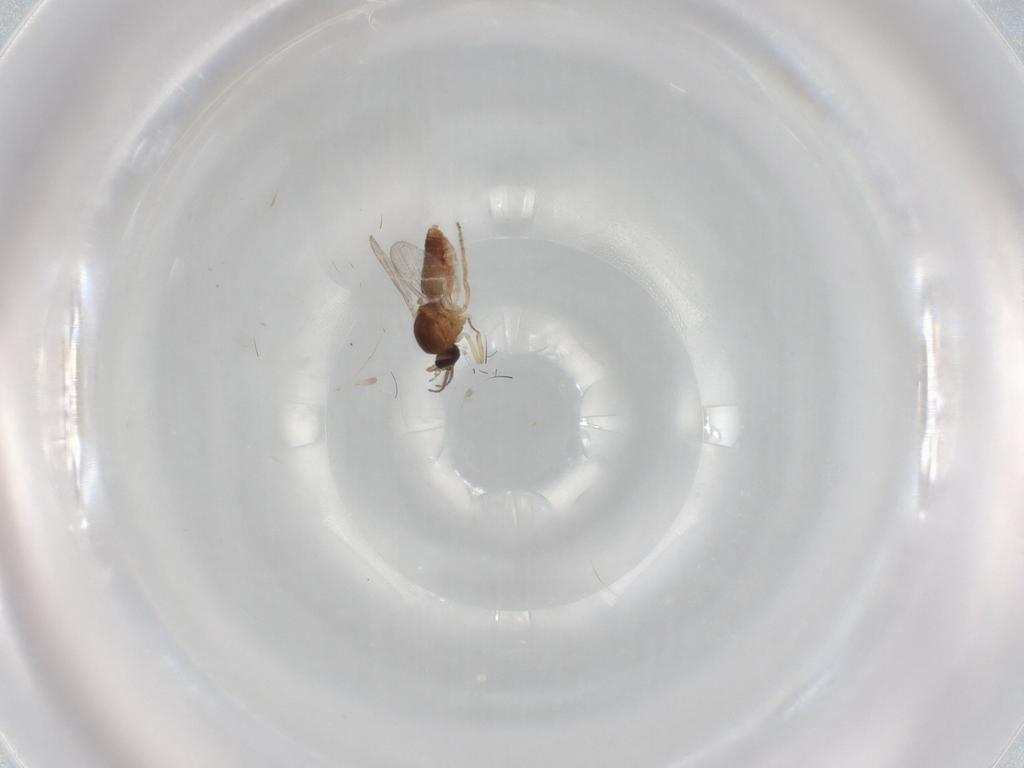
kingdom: Animalia
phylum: Arthropoda
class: Insecta
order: Diptera
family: Ceratopogonidae
